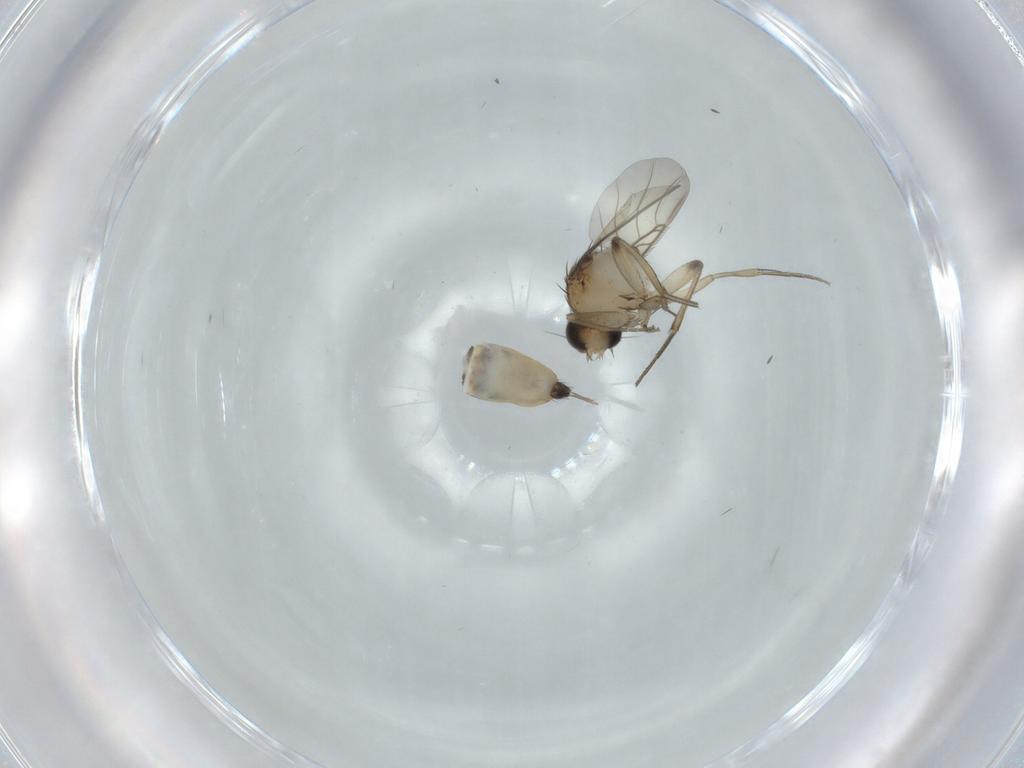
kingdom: Animalia
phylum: Arthropoda
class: Insecta
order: Diptera
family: Phoridae
